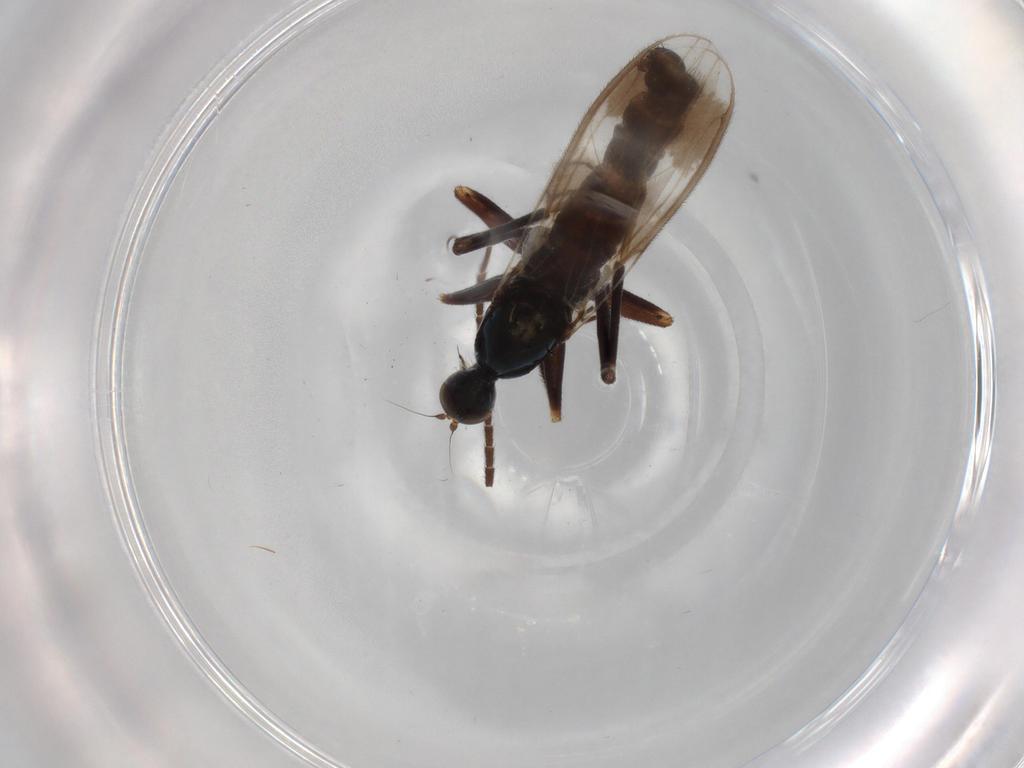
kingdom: Animalia
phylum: Arthropoda
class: Insecta
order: Diptera
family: Hybotidae
